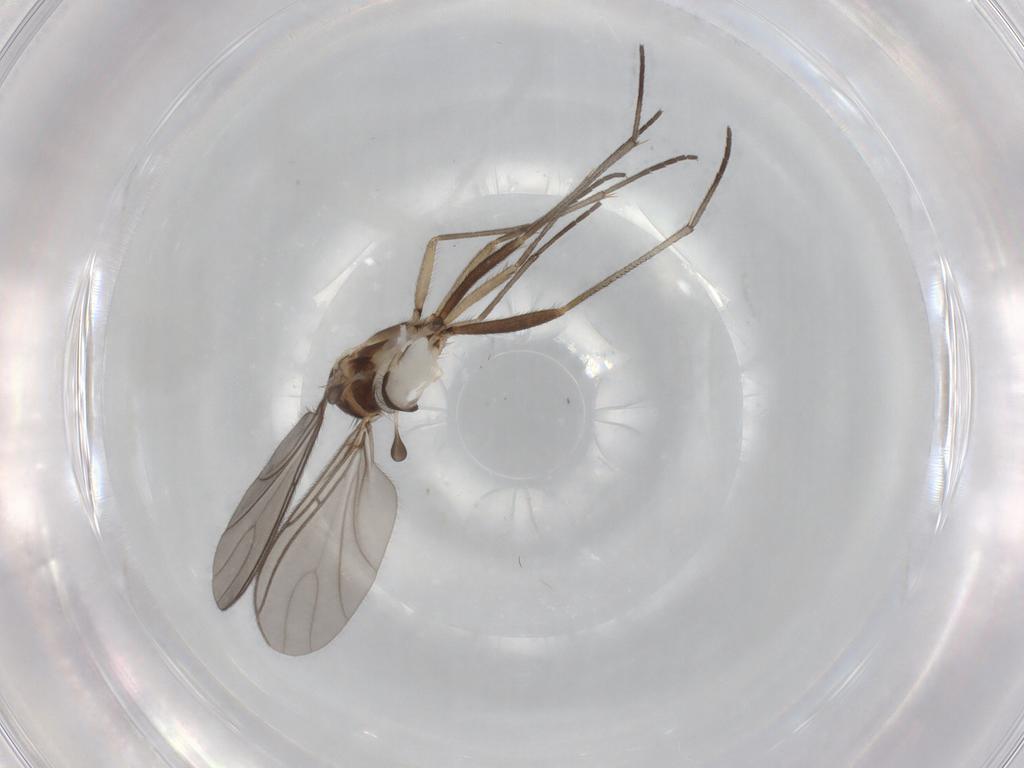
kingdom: Animalia
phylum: Arthropoda
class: Insecta
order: Diptera
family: Sciaridae
